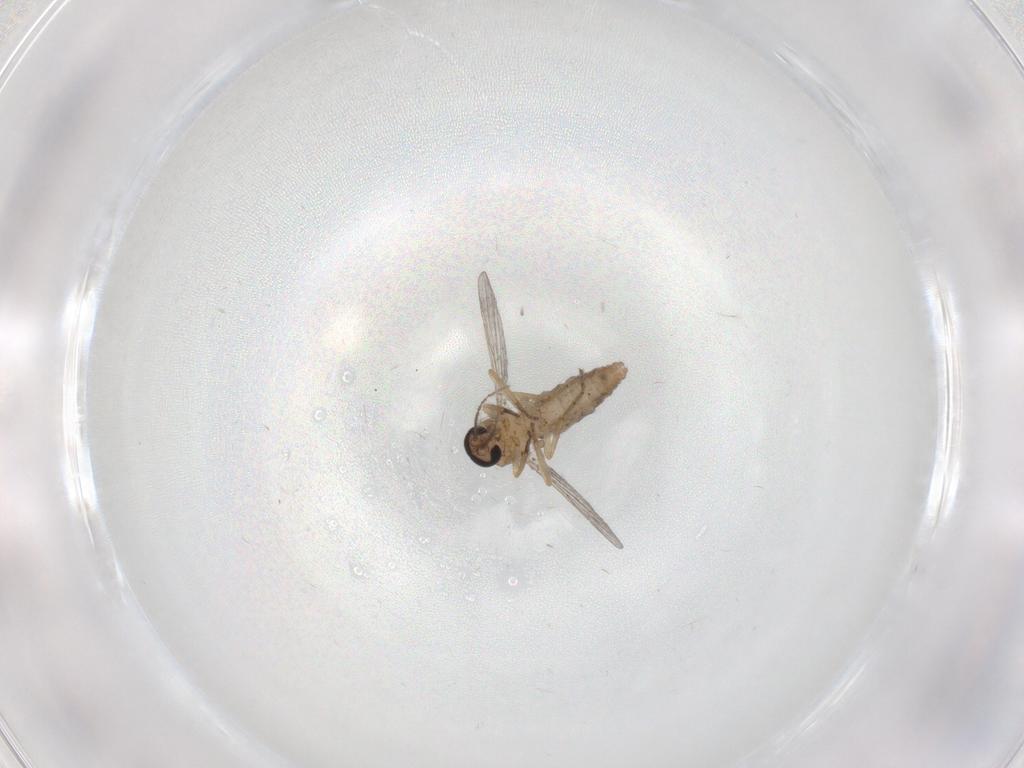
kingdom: Animalia
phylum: Arthropoda
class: Insecta
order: Diptera
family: Ceratopogonidae
